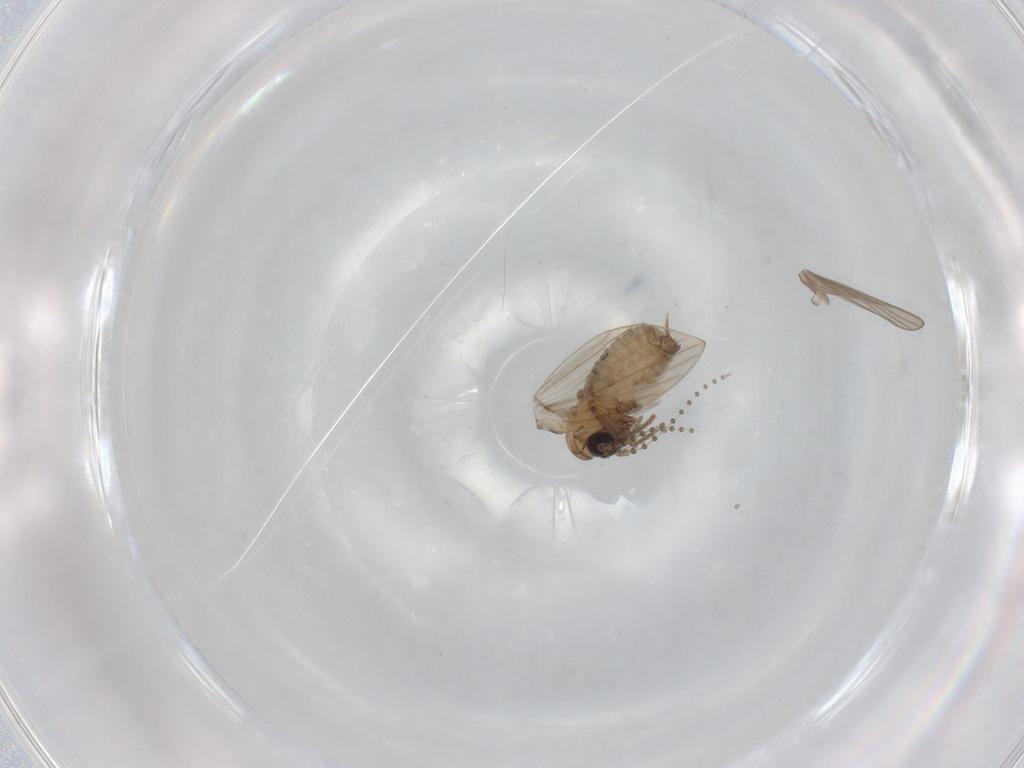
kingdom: Animalia
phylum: Arthropoda
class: Insecta
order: Diptera
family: Psychodidae
